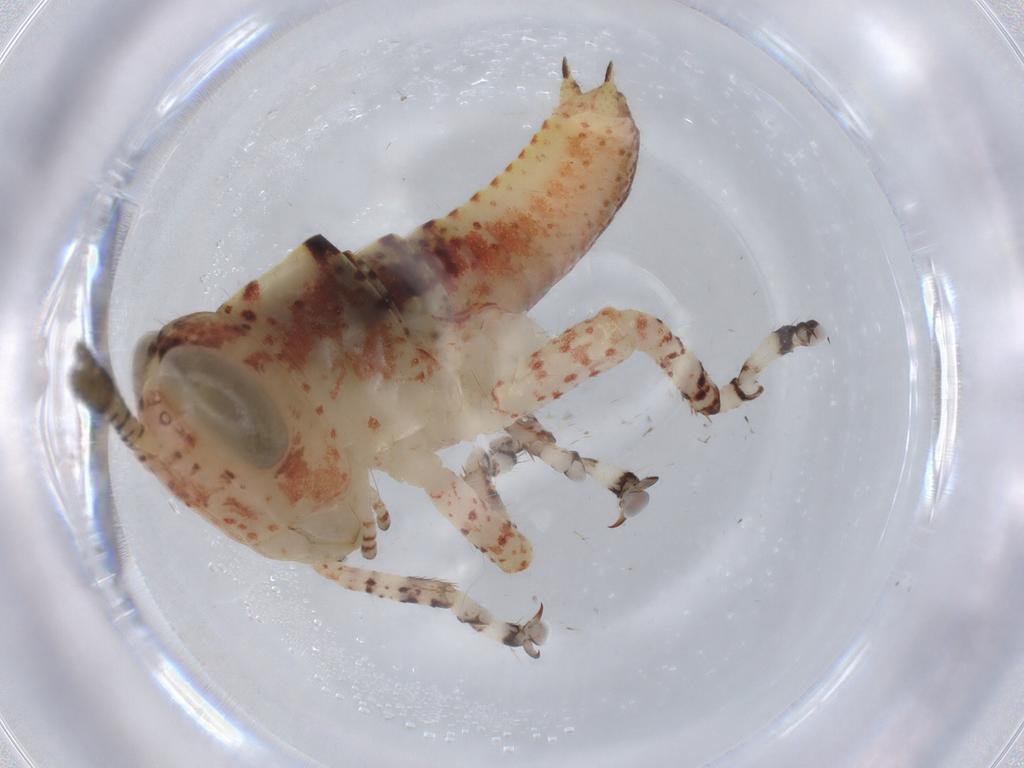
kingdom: Animalia
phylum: Arthropoda
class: Insecta
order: Orthoptera
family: Acrididae
